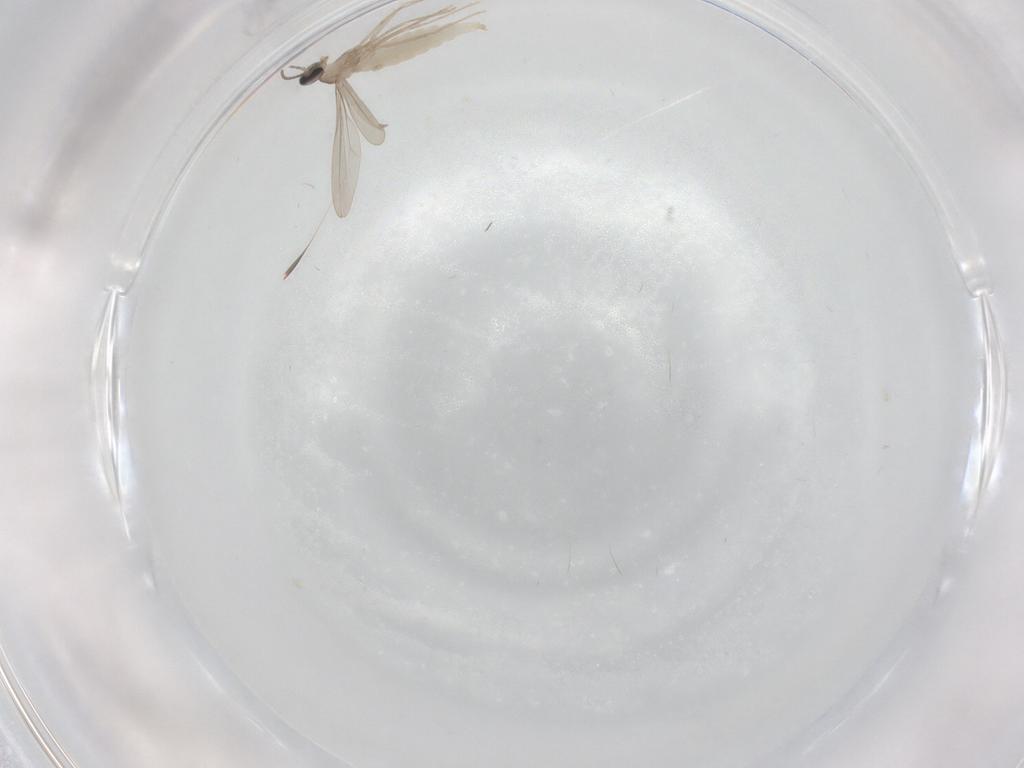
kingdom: Animalia
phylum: Arthropoda
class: Insecta
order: Diptera
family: Cecidomyiidae
